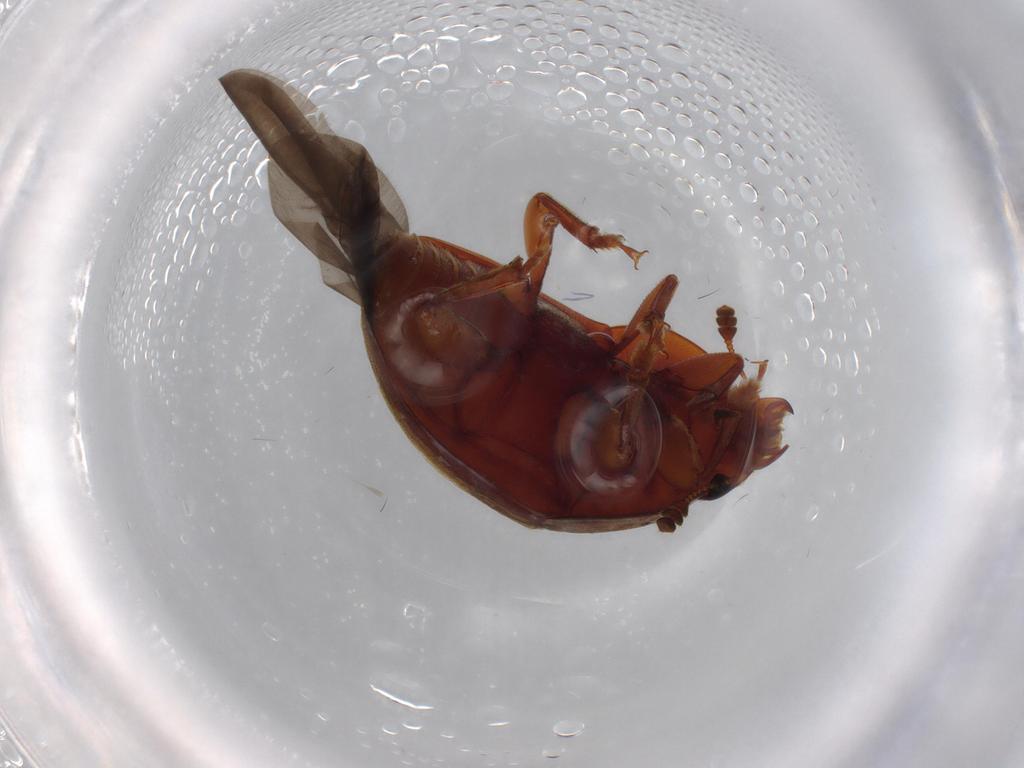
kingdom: Animalia
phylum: Arthropoda
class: Insecta
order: Coleoptera
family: Nitidulidae
